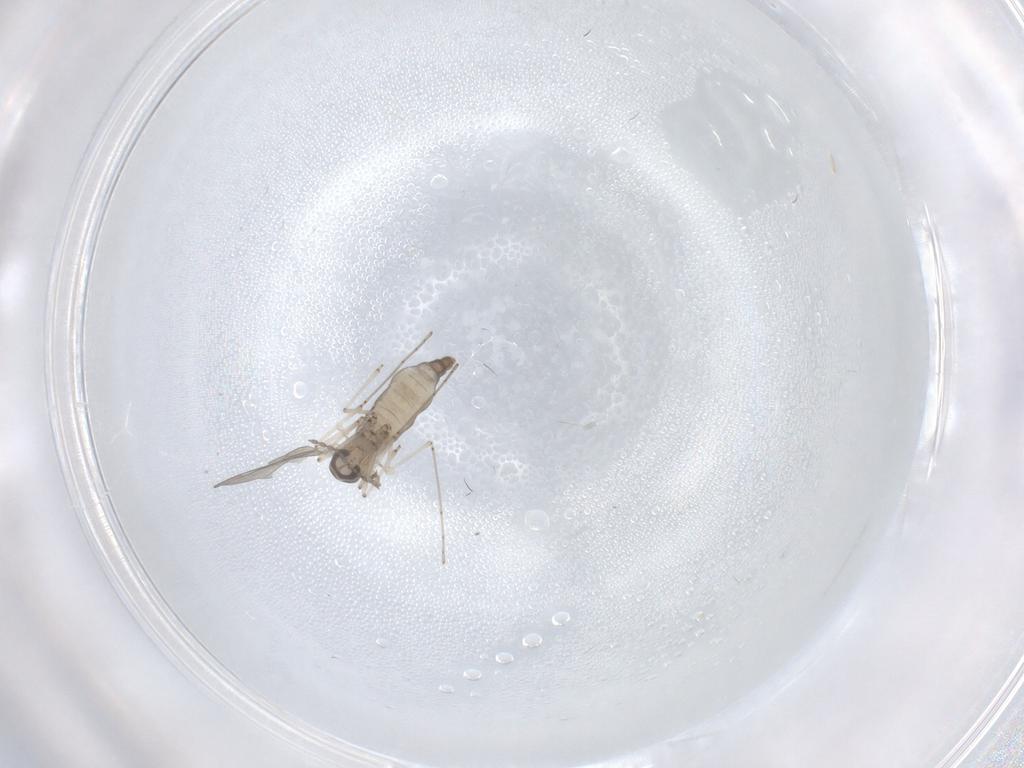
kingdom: Animalia
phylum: Arthropoda
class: Insecta
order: Diptera
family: Cecidomyiidae
